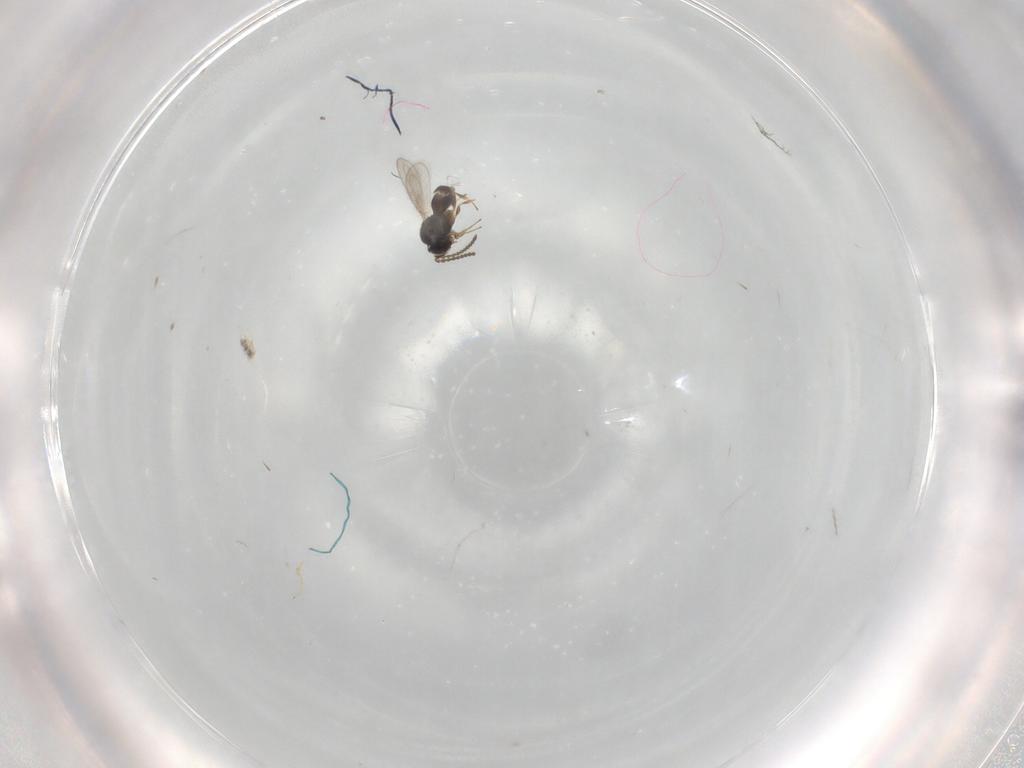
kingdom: Animalia
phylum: Arthropoda
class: Insecta
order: Hymenoptera
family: Scelionidae
